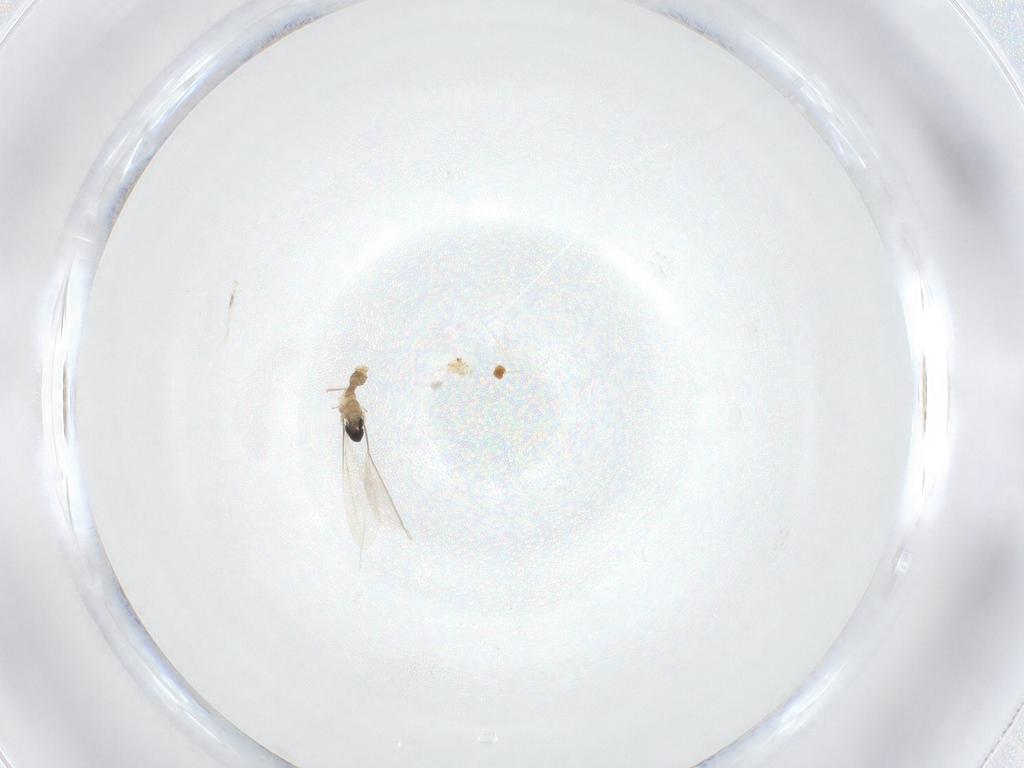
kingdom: Animalia
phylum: Arthropoda
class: Insecta
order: Diptera
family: Cecidomyiidae
